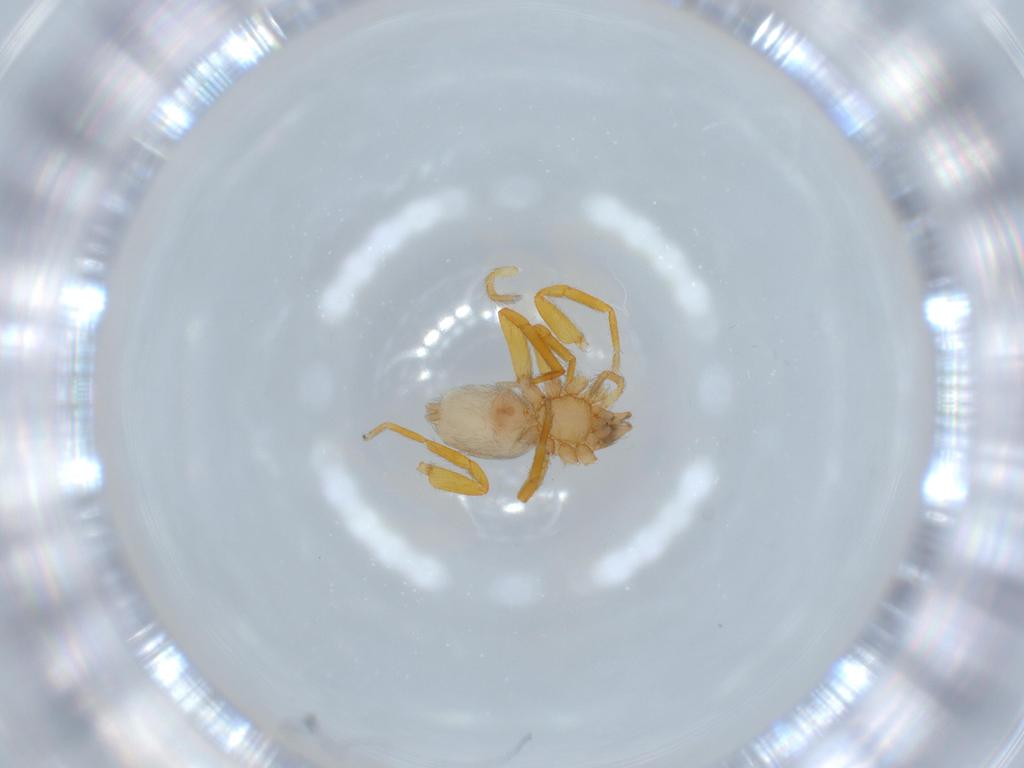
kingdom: Animalia
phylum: Arthropoda
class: Arachnida
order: Araneae
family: Oonopidae
